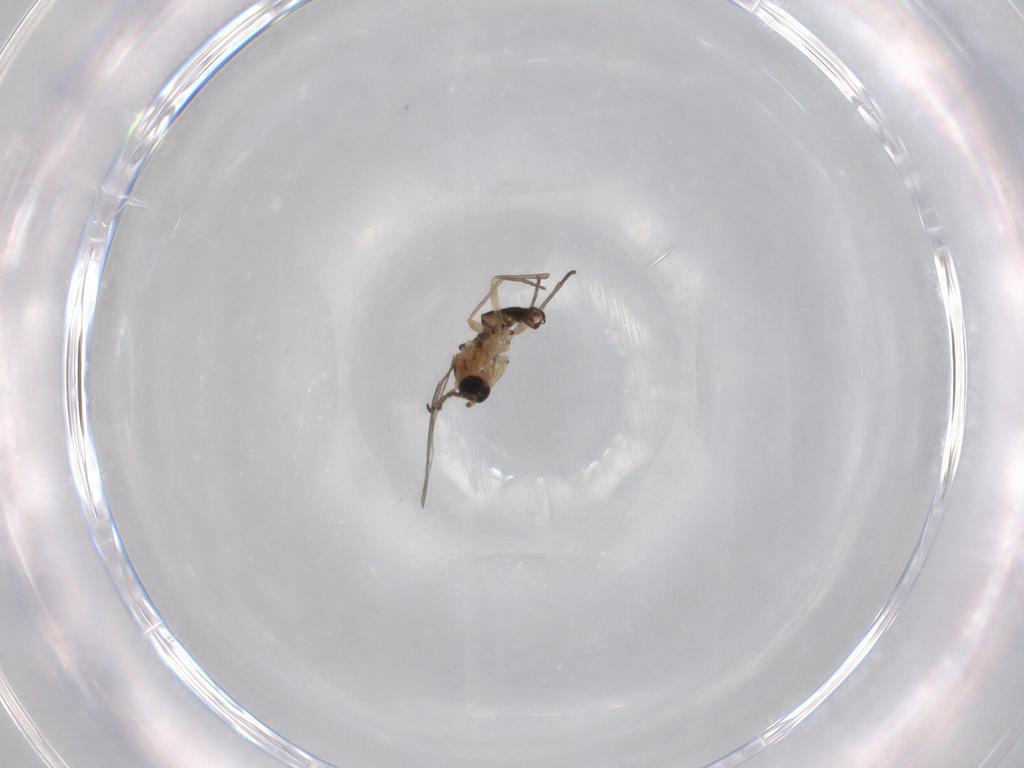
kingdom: Animalia
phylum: Arthropoda
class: Insecta
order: Diptera
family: Sciaridae
